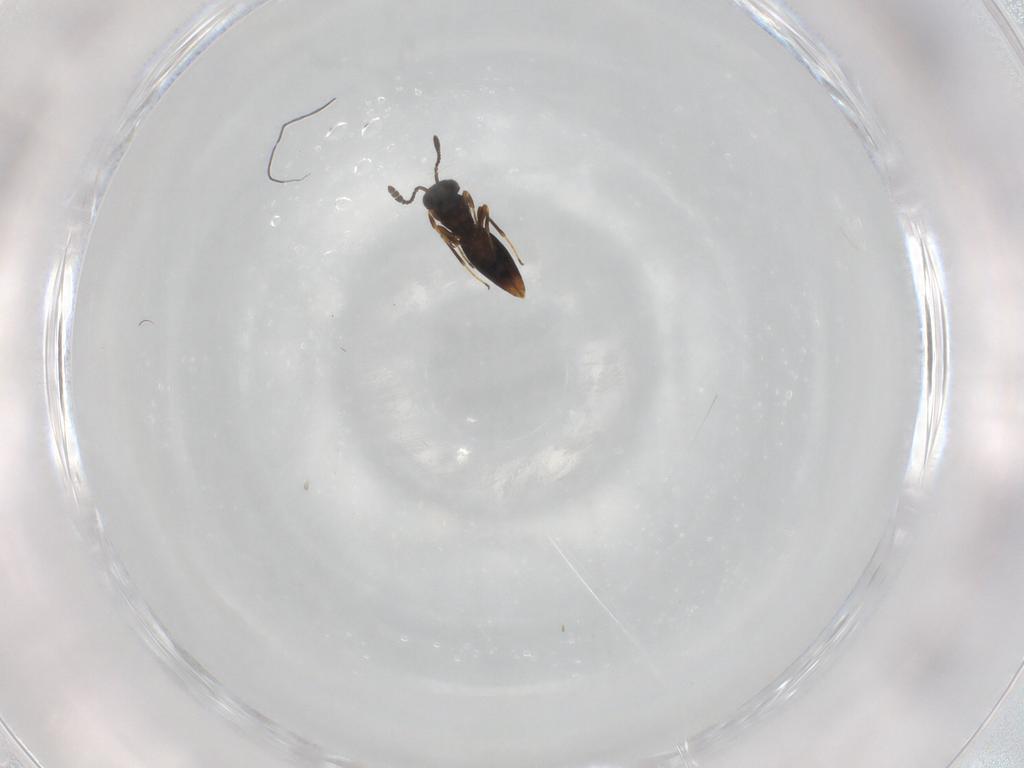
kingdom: Animalia
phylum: Arthropoda
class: Insecta
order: Hymenoptera
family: Scelionidae
